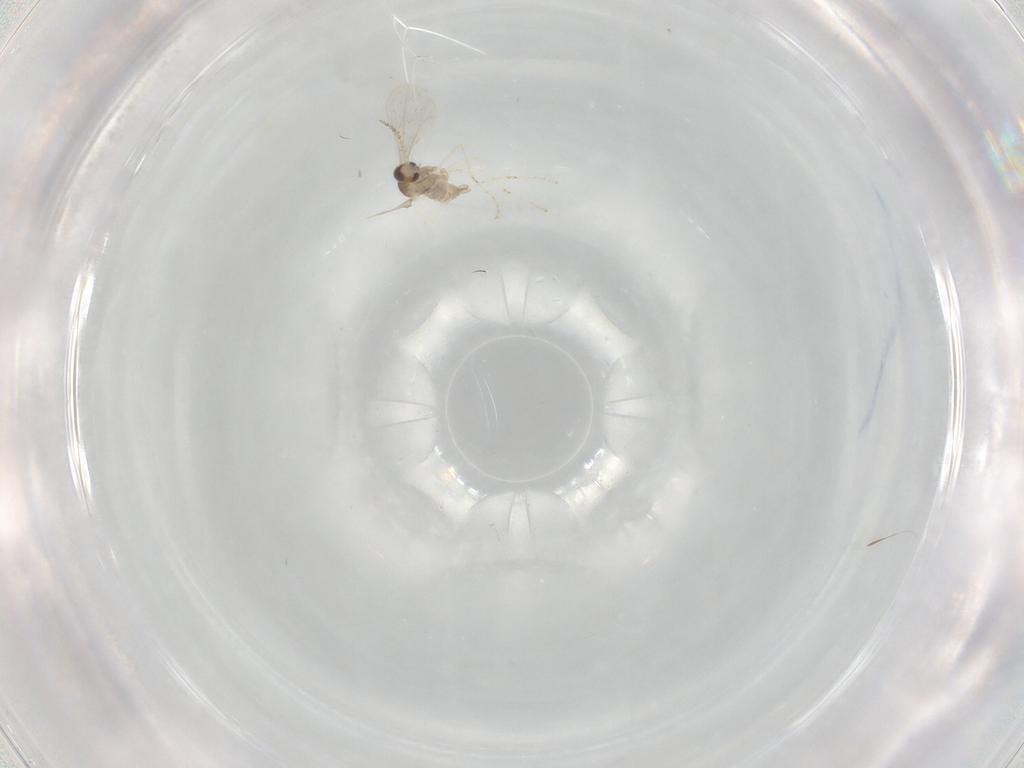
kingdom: Animalia
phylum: Arthropoda
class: Insecta
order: Diptera
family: Cecidomyiidae
